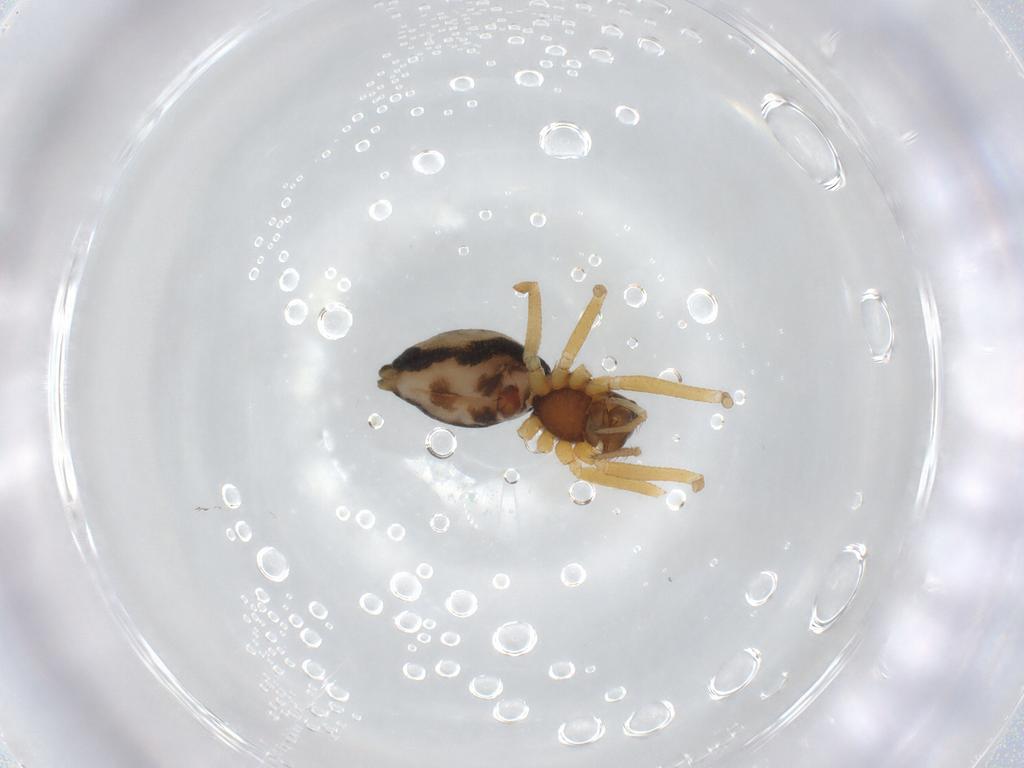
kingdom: Animalia
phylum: Arthropoda
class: Arachnida
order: Araneae
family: Linyphiidae
